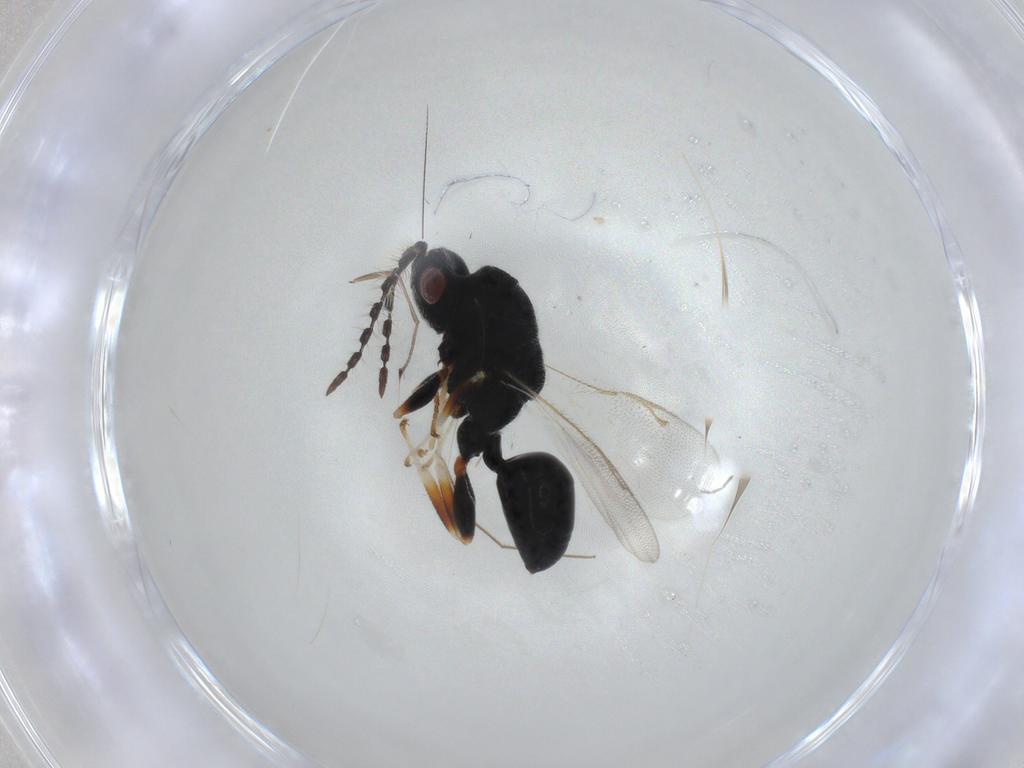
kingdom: Animalia
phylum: Arthropoda
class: Insecta
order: Hymenoptera
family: Eurytomidae
